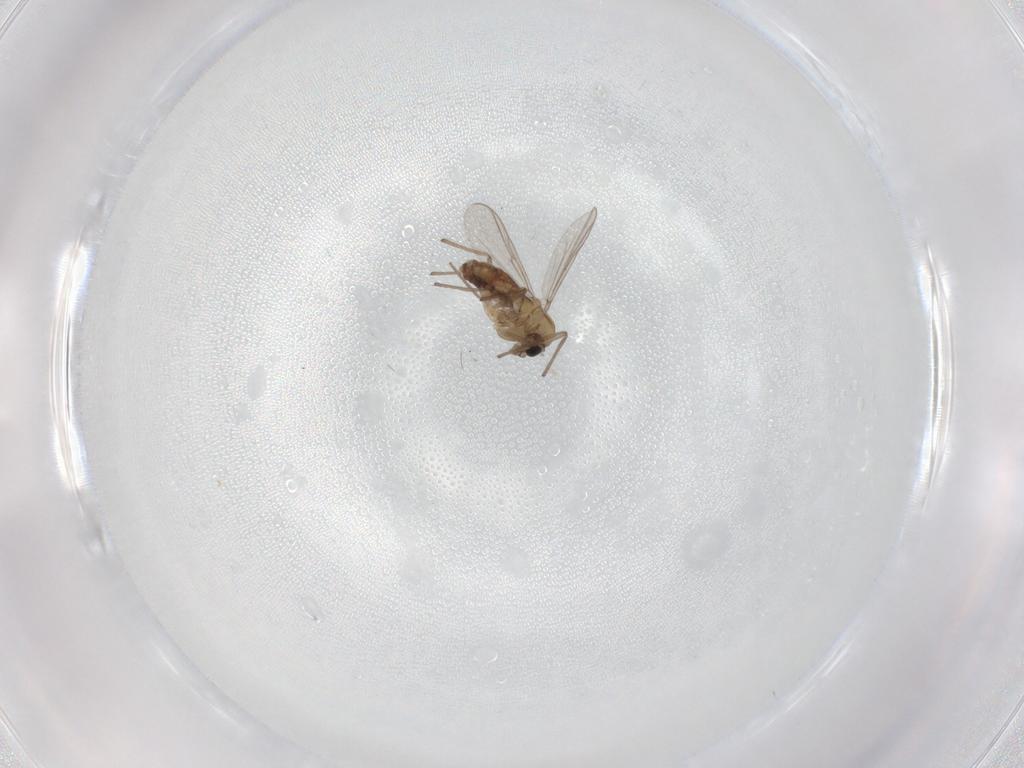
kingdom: Animalia
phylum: Arthropoda
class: Insecta
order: Diptera
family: Chironomidae
